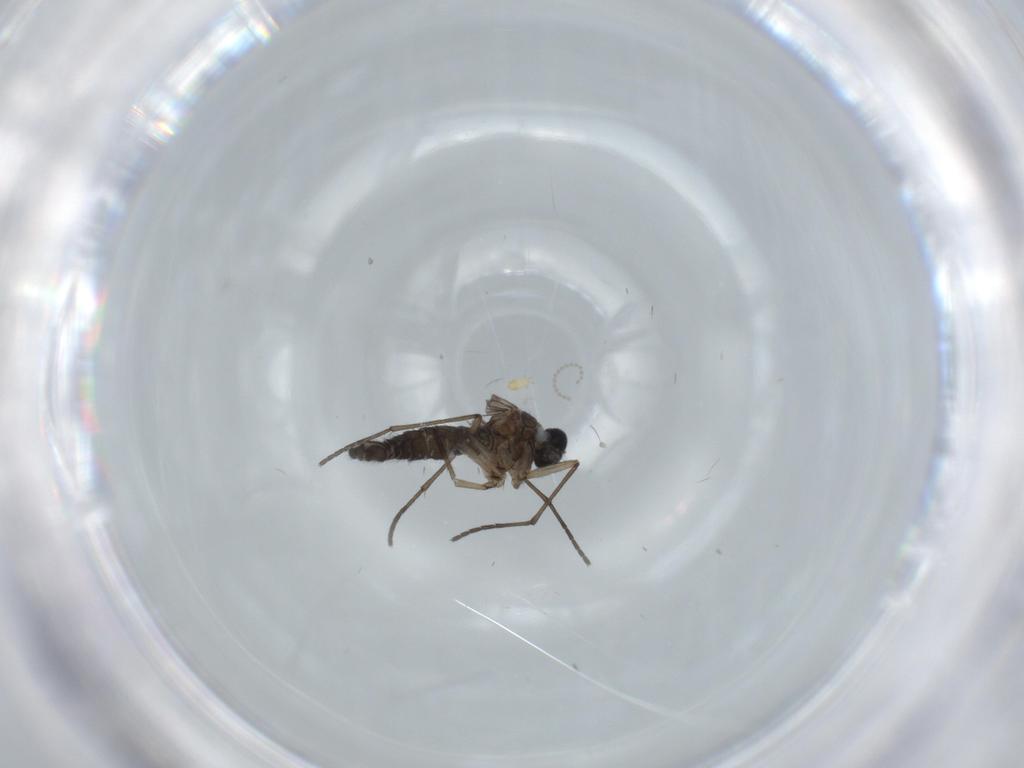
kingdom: Animalia
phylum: Arthropoda
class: Insecta
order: Diptera
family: Sciaridae
